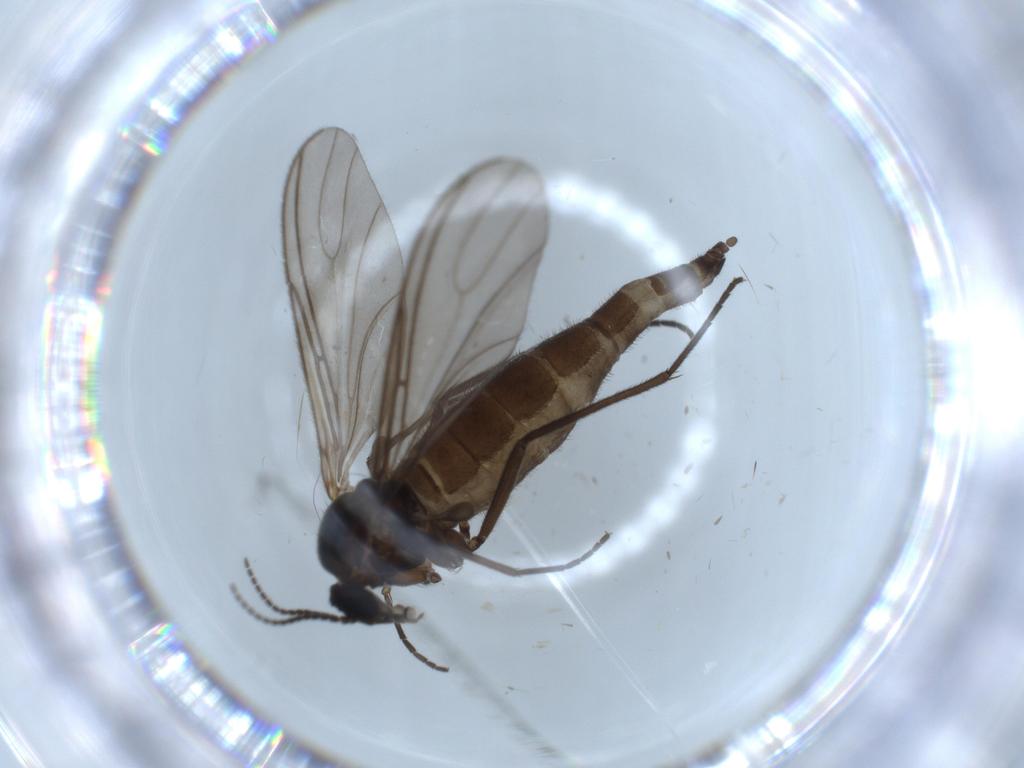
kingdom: Animalia
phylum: Arthropoda
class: Insecta
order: Diptera
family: Sciaridae
